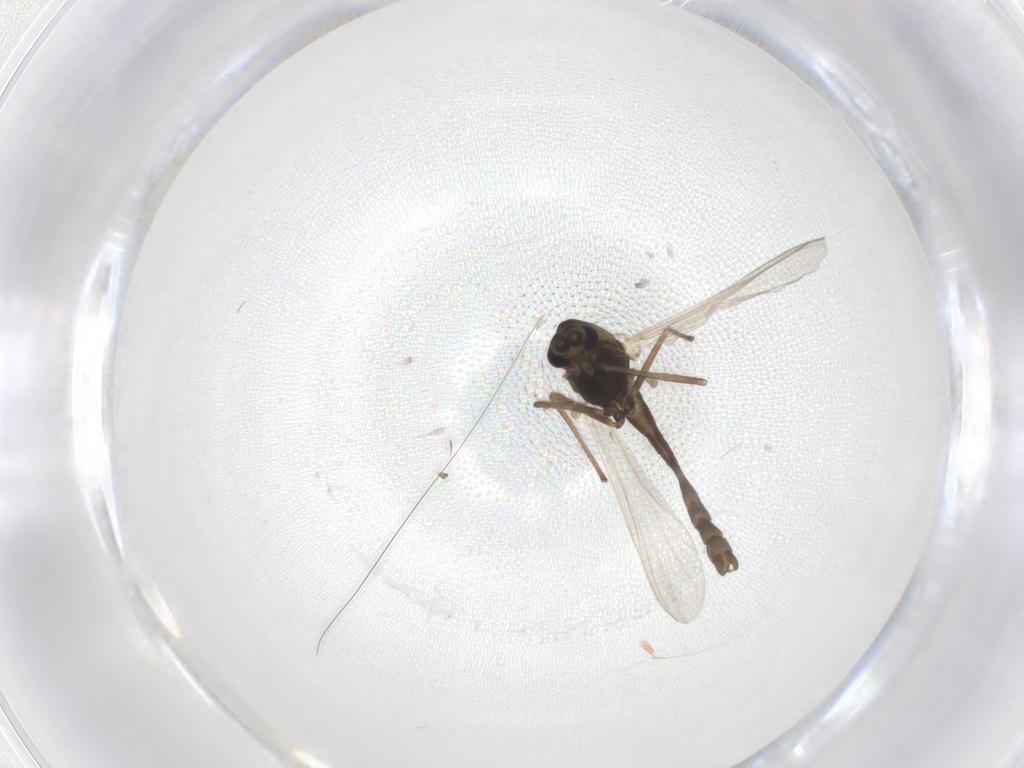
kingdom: Animalia
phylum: Arthropoda
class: Insecta
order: Diptera
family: Chironomidae
